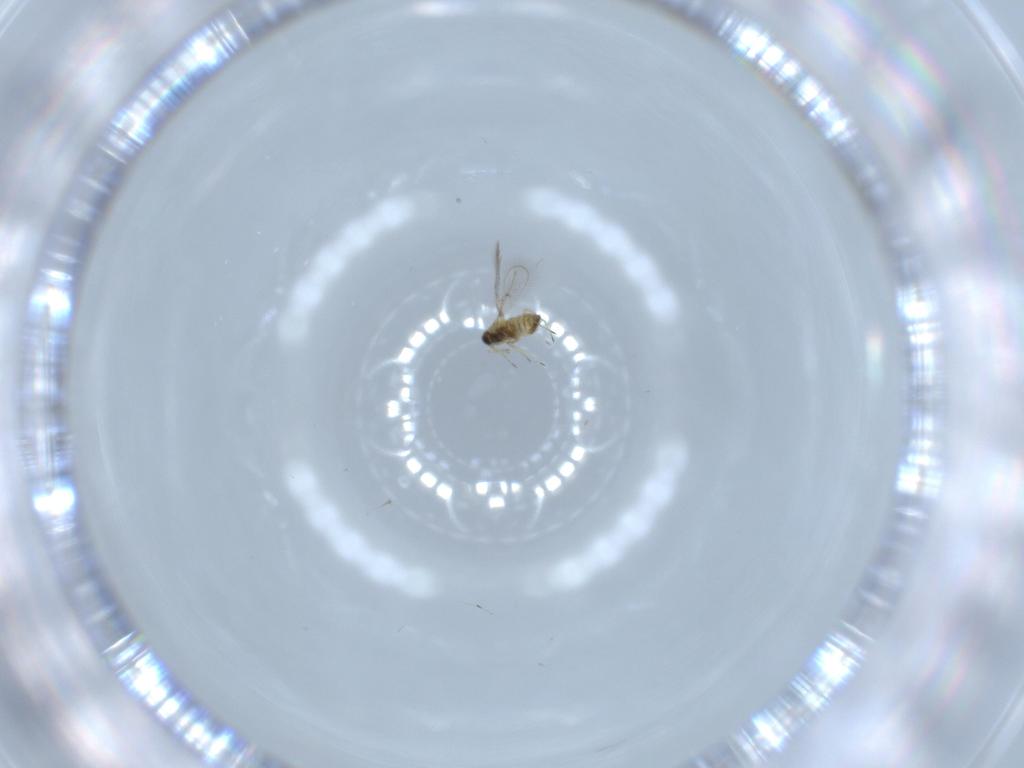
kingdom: Animalia
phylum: Arthropoda
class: Insecta
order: Hymenoptera
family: Trichogrammatidae
